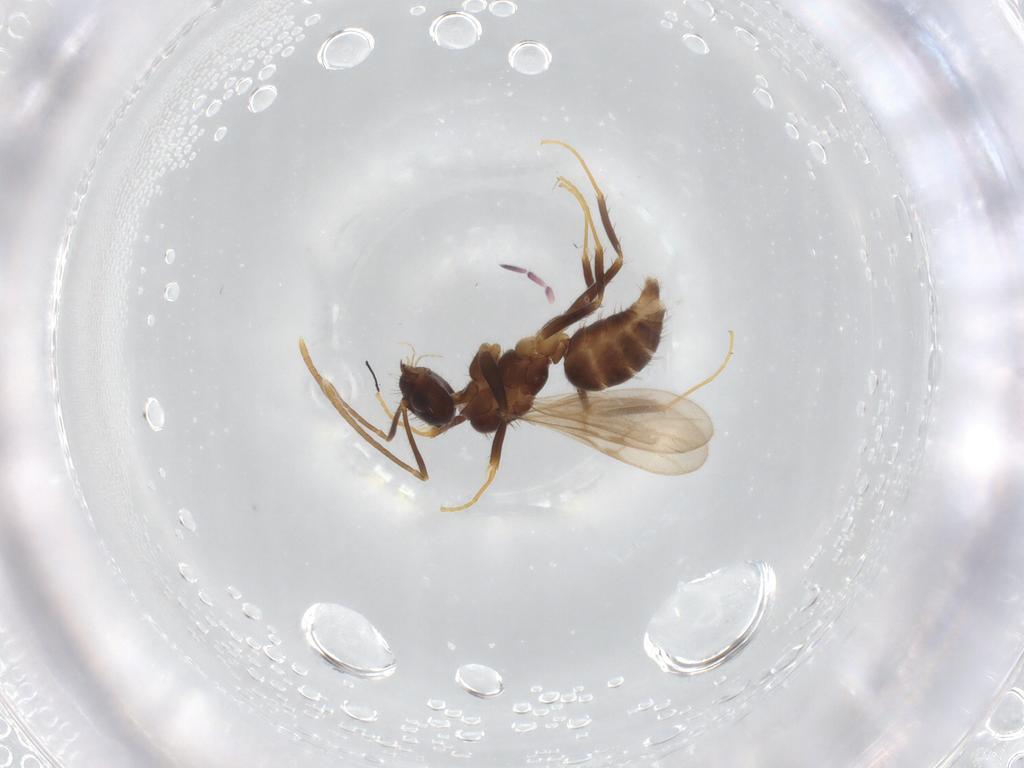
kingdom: Animalia
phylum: Arthropoda
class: Insecta
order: Hymenoptera
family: Formicidae
